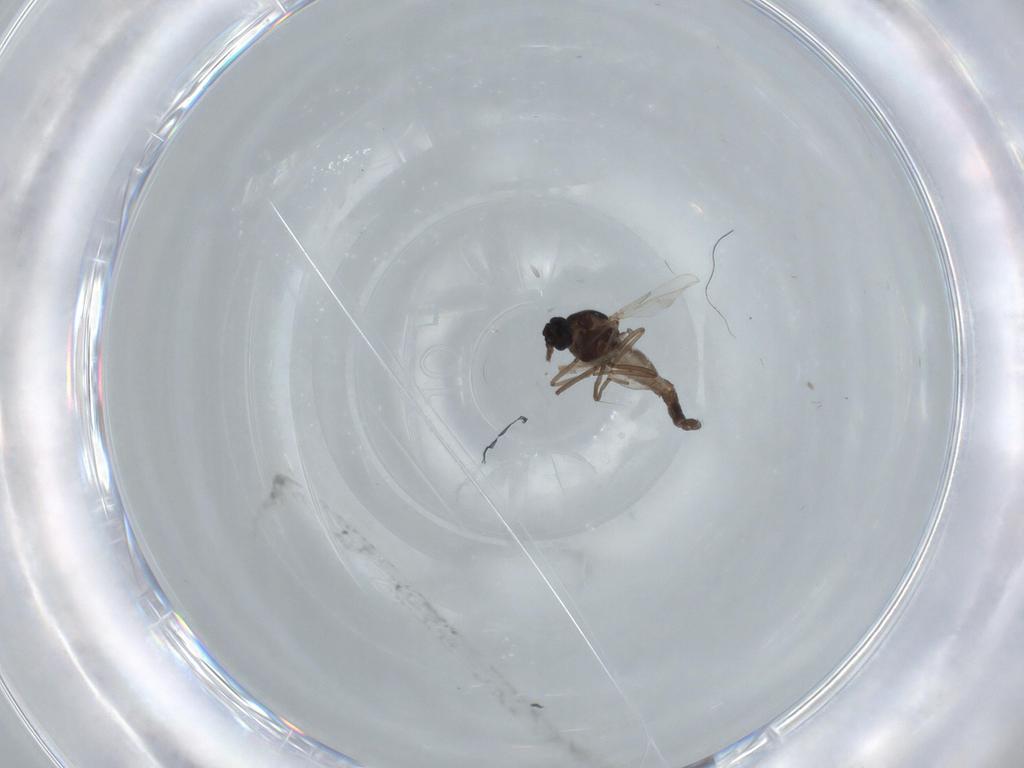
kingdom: Animalia
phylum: Arthropoda
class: Insecta
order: Diptera
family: Ceratopogonidae
